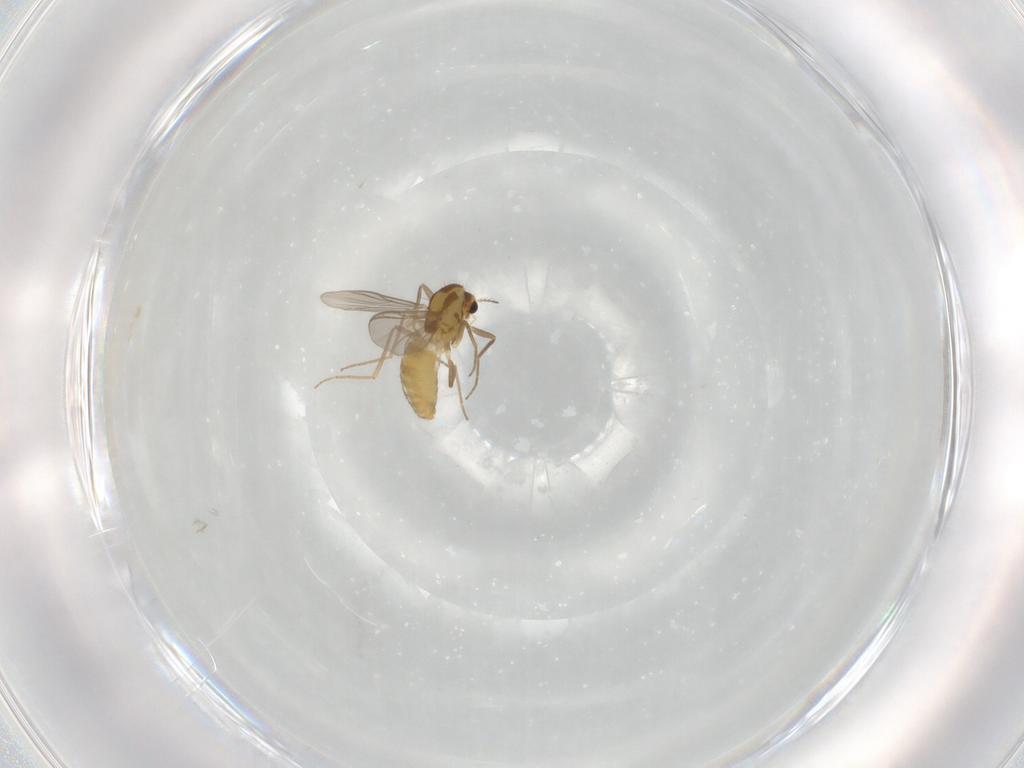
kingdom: Animalia
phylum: Arthropoda
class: Insecta
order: Diptera
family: Chironomidae
